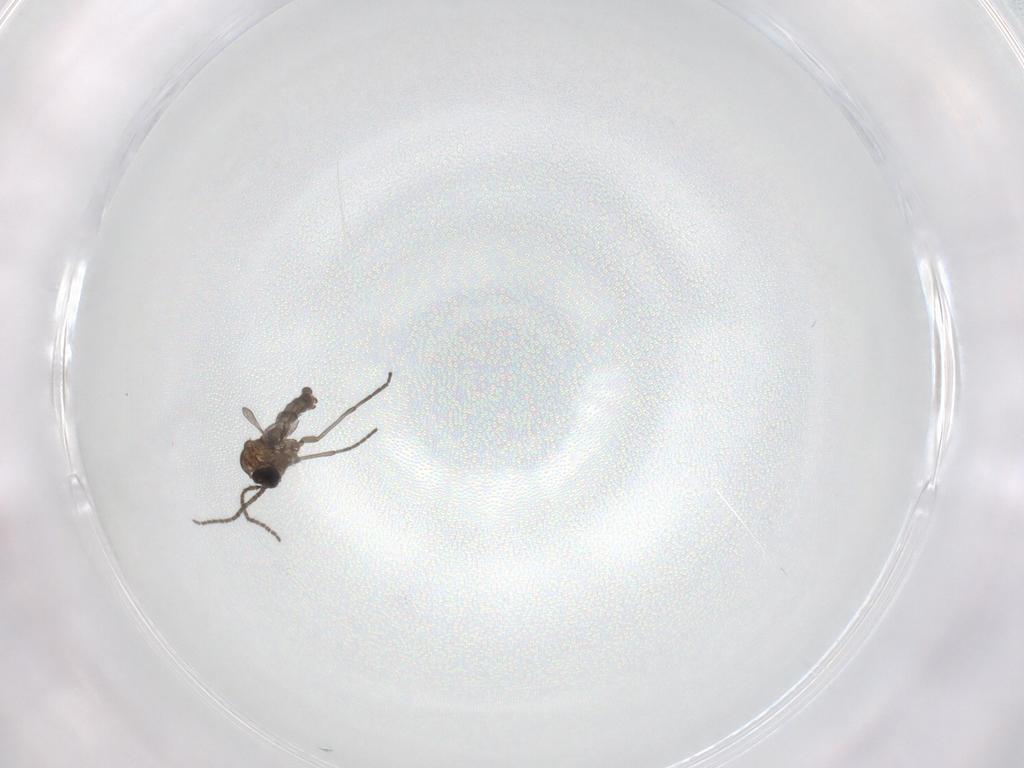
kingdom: Animalia
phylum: Arthropoda
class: Insecta
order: Diptera
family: Sciaridae
